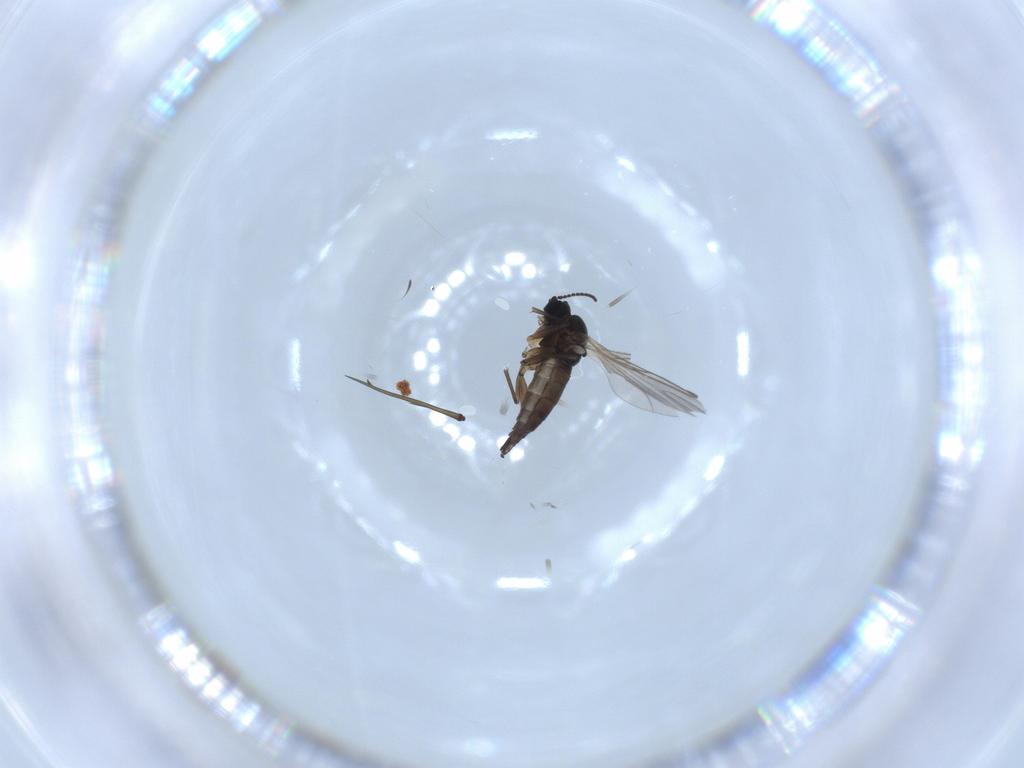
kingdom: Animalia
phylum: Arthropoda
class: Insecta
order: Diptera
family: Sciaridae
